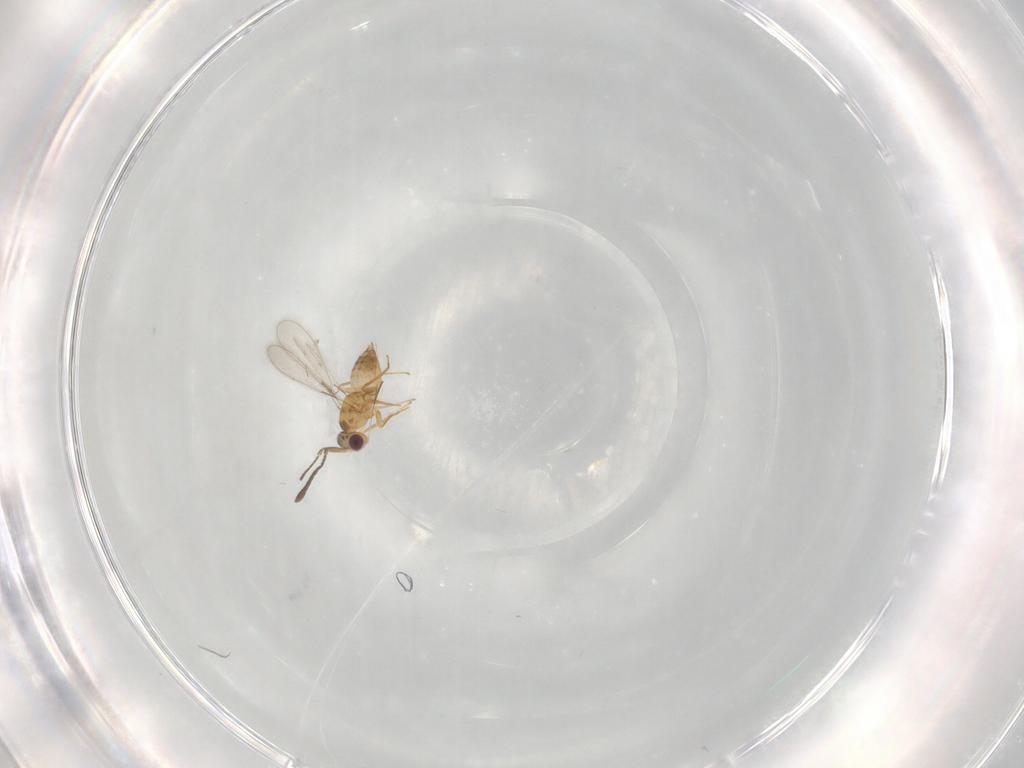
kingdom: Animalia
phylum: Arthropoda
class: Insecta
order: Hymenoptera
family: Mymaridae
